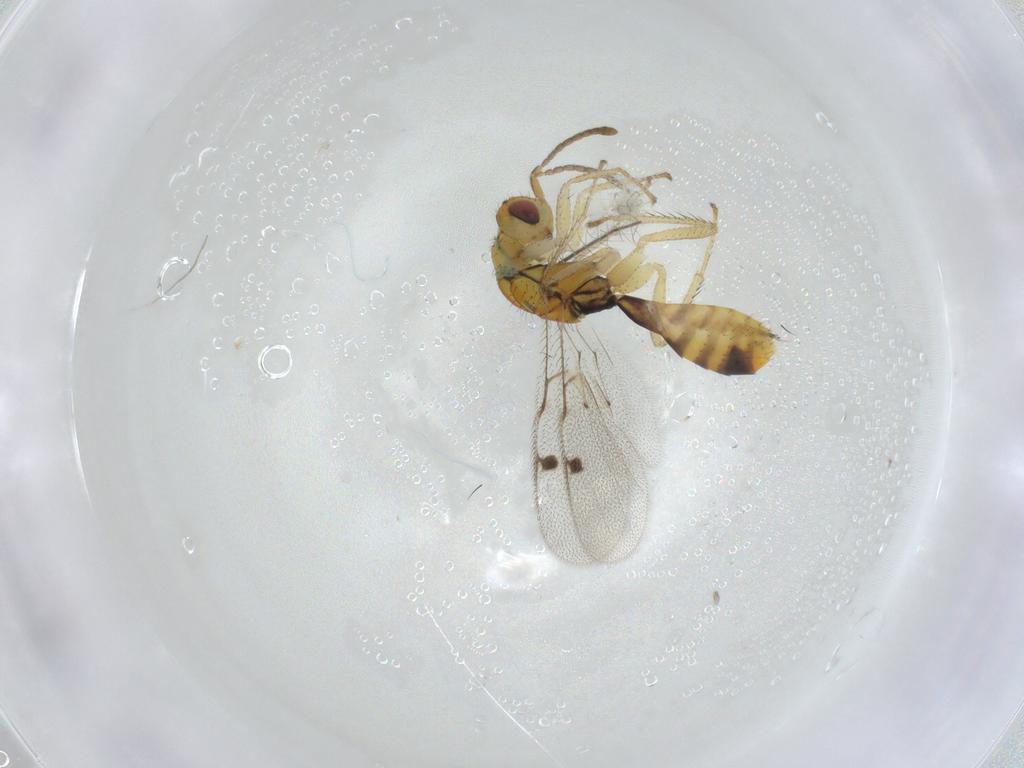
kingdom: Animalia
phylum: Arthropoda
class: Insecta
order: Hymenoptera
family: Megastigmidae
